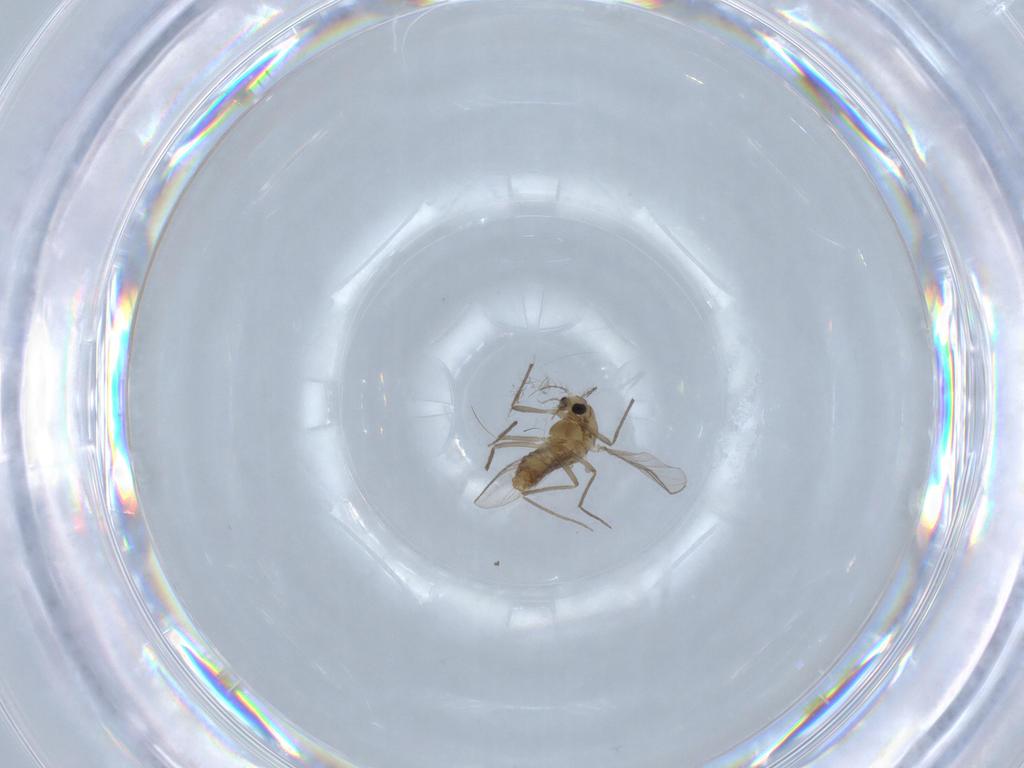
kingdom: Animalia
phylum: Arthropoda
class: Insecta
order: Diptera
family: Chironomidae
